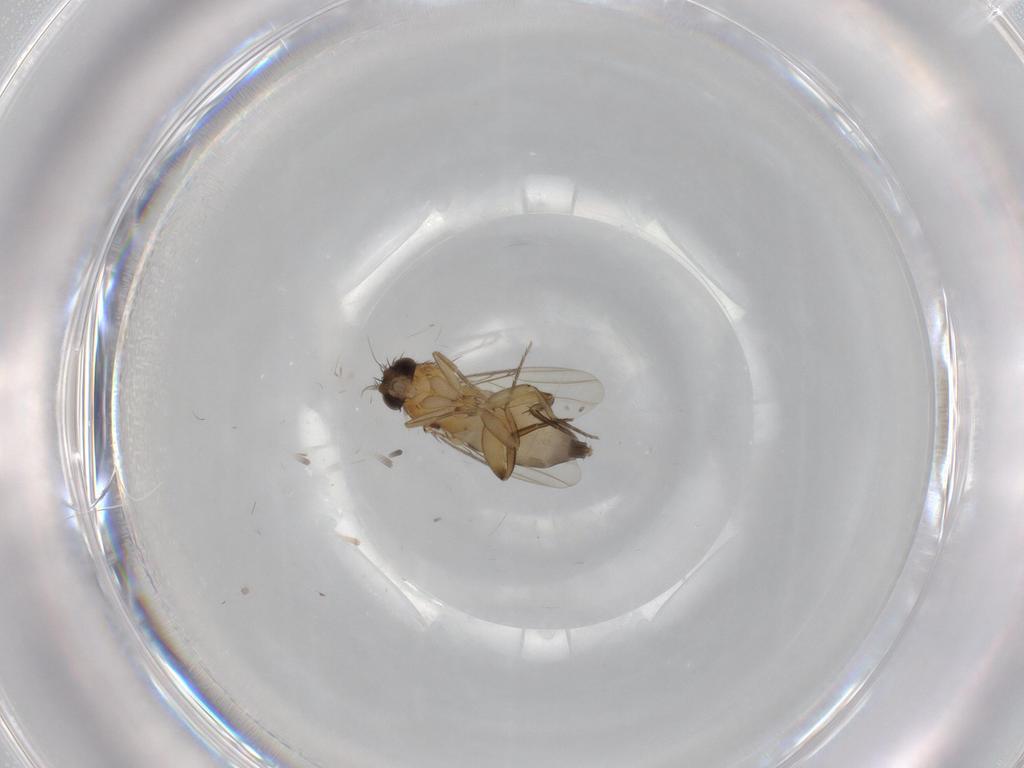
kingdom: Animalia
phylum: Arthropoda
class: Insecta
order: Diptera
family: Phoridae
